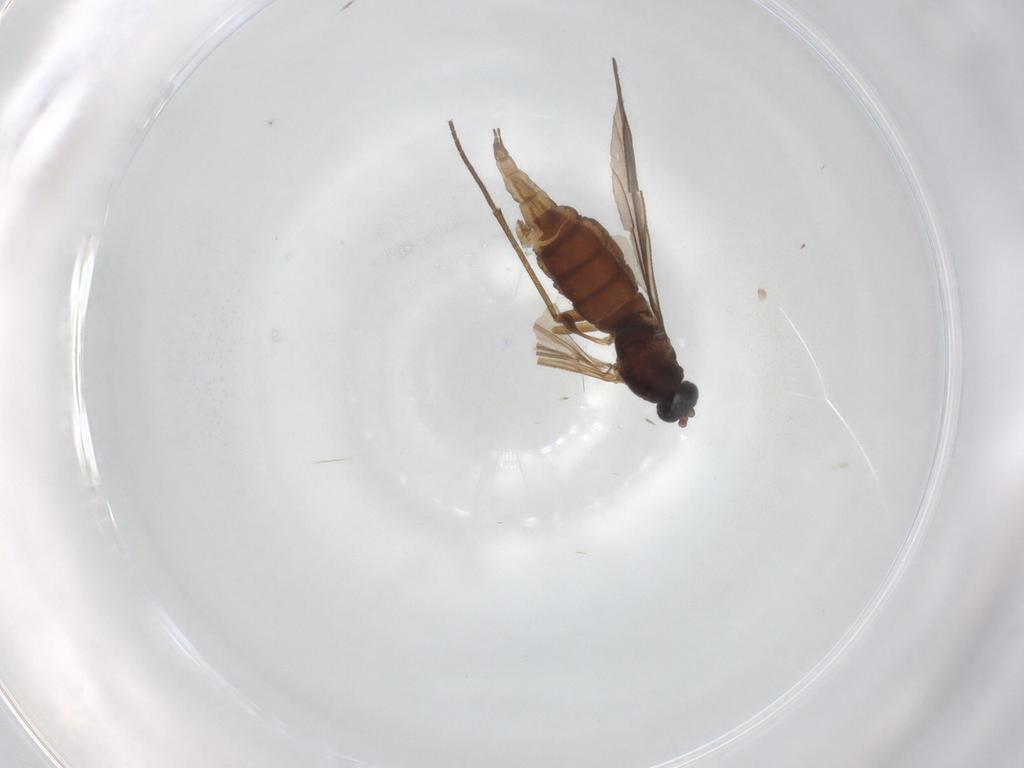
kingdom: Animalia
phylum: Arthropoda
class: Insecta
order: Diptera
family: Sciaridae
